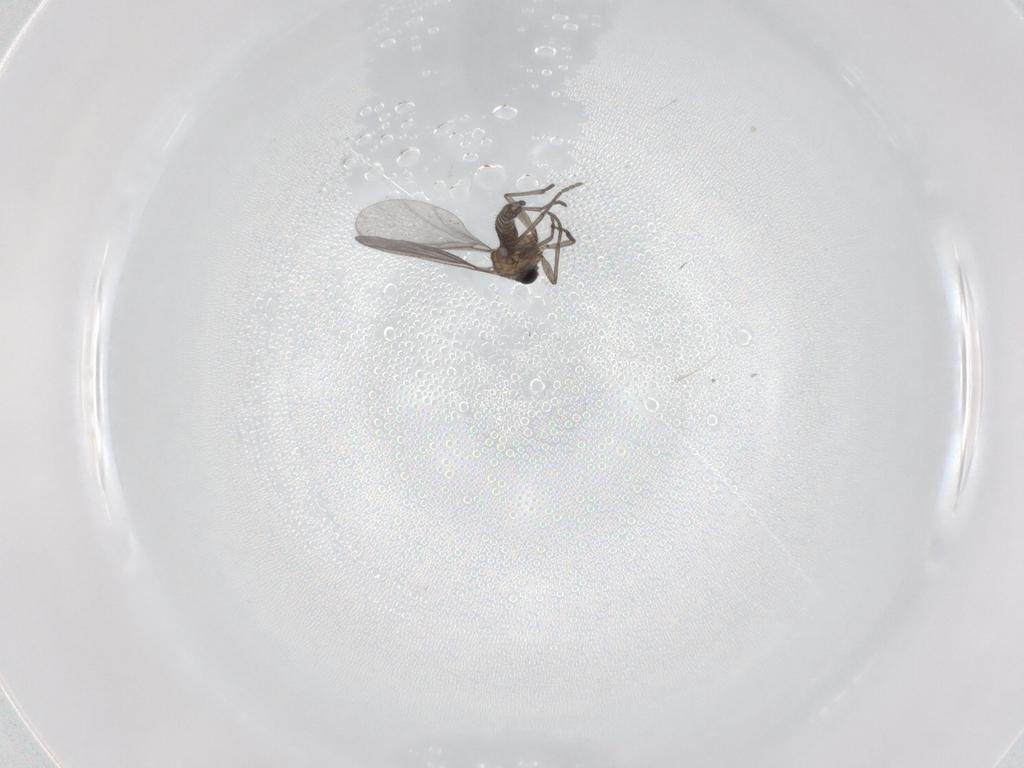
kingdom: Animalia
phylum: Arthropoda
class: Insecta
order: Diptera
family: Sciaridae
